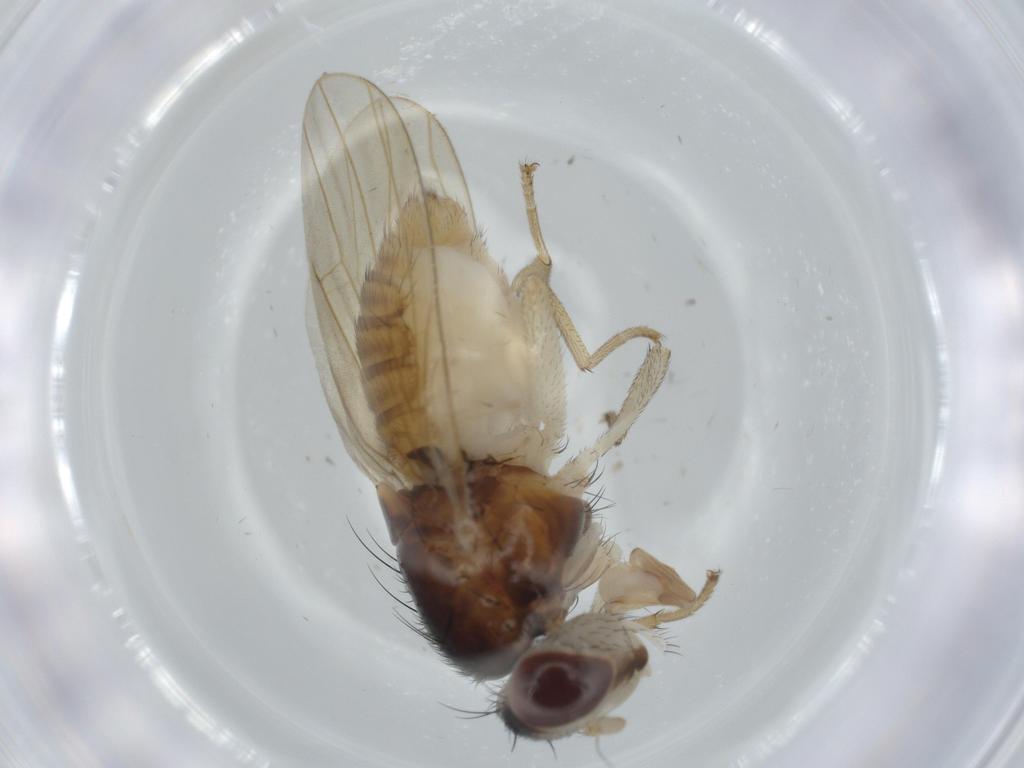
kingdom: Animalia
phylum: Arthropoda
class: Insecta
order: Diptera
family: Lauxaniidae
